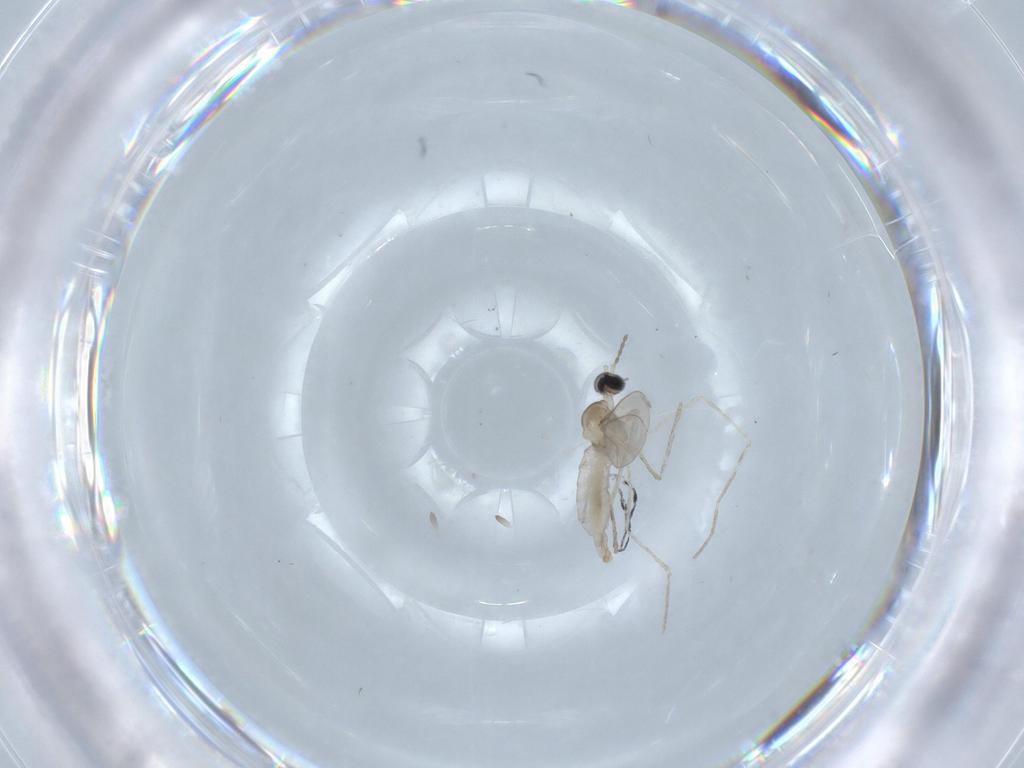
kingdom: Animalia
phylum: Arthropoda
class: Insecta
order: Diptera
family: Cecidomyiidae
